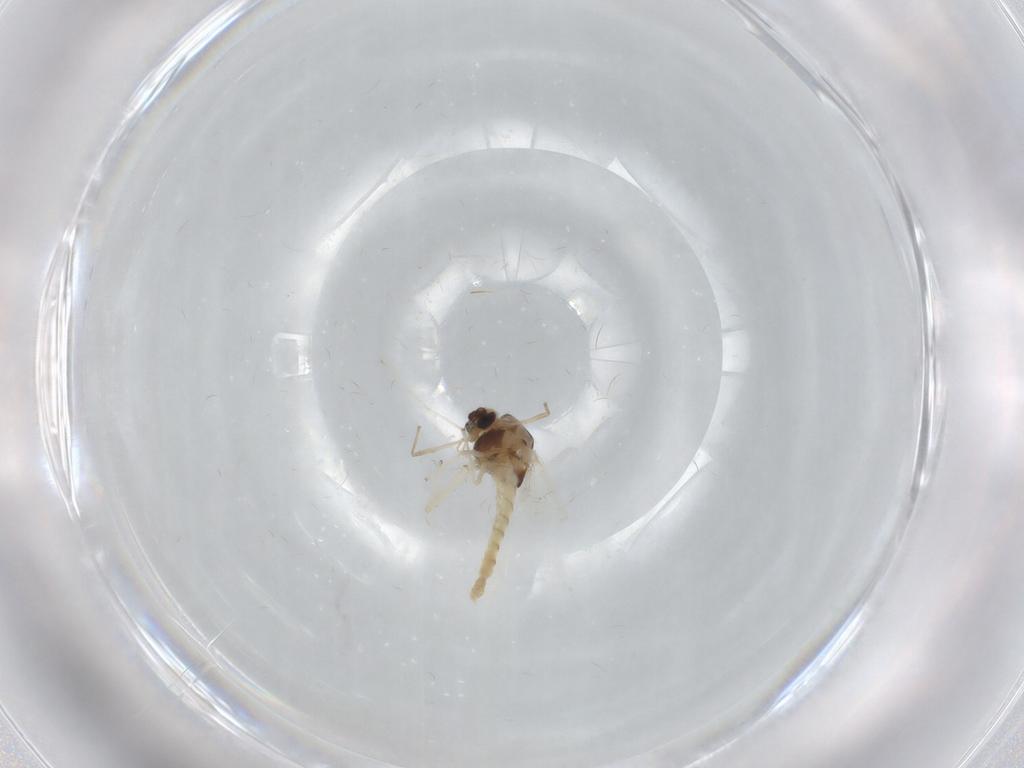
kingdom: Animalia
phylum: Arthropoda
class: Insecta
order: Diptera
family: Chironomidae
